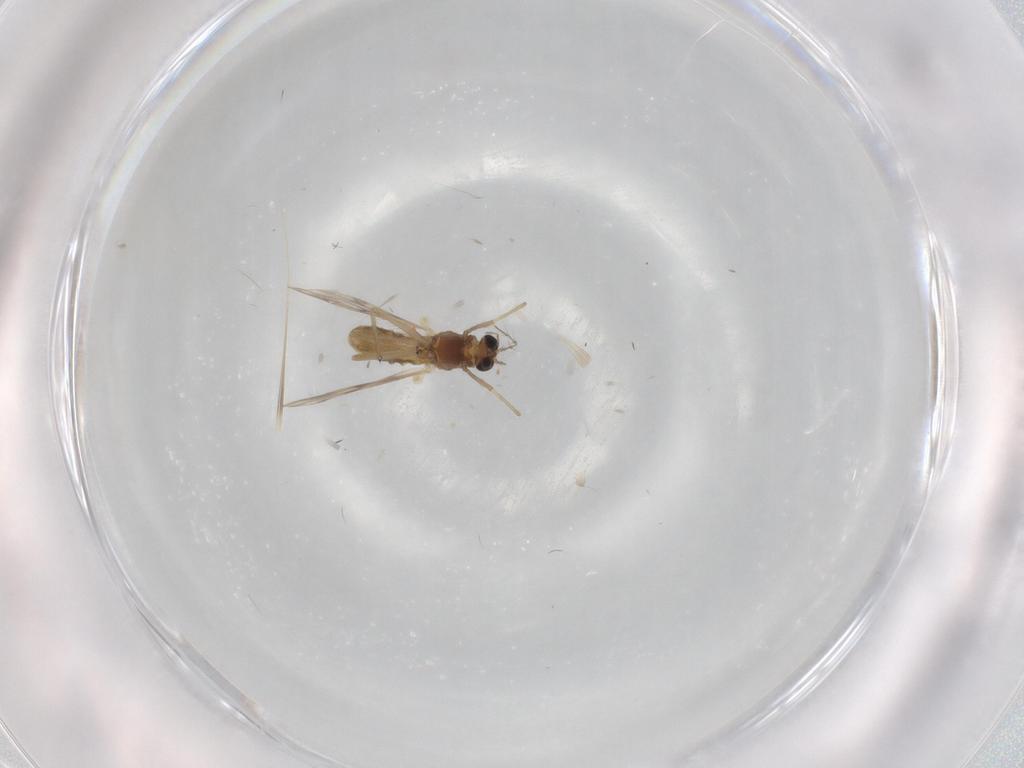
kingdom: Animalia
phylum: Arthropoda
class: Insecta
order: Diptera
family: Chironomidae
